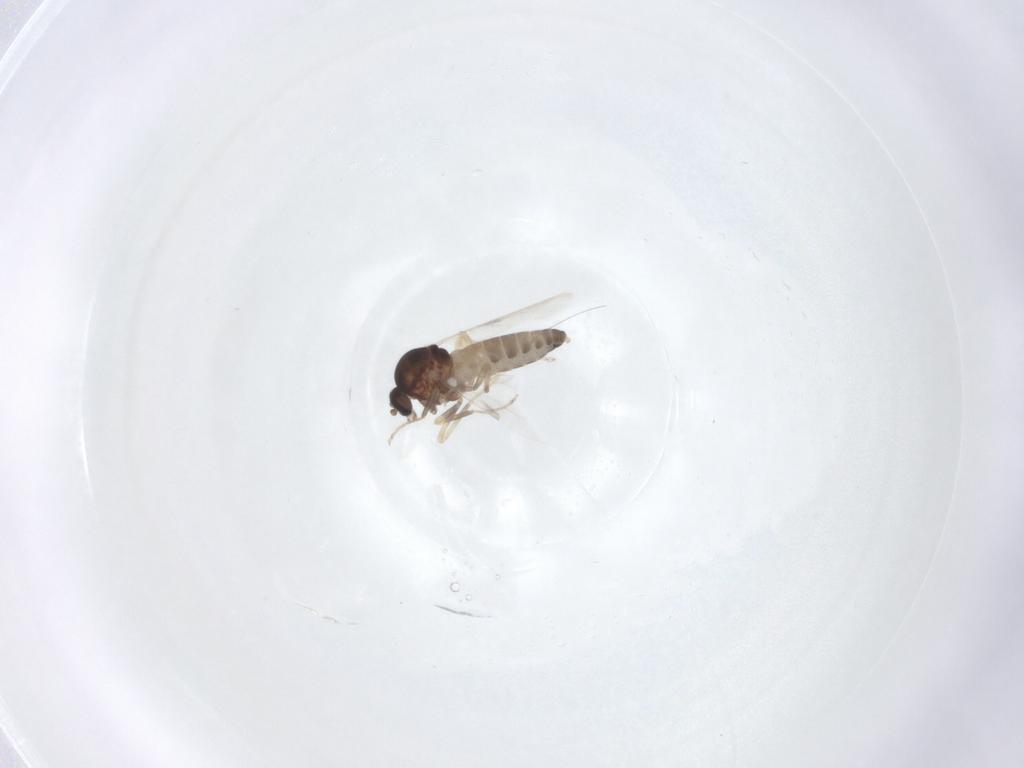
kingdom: Animalia
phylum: Arthropoda
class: Insecta
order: Diptera
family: Ceratopogonidae
